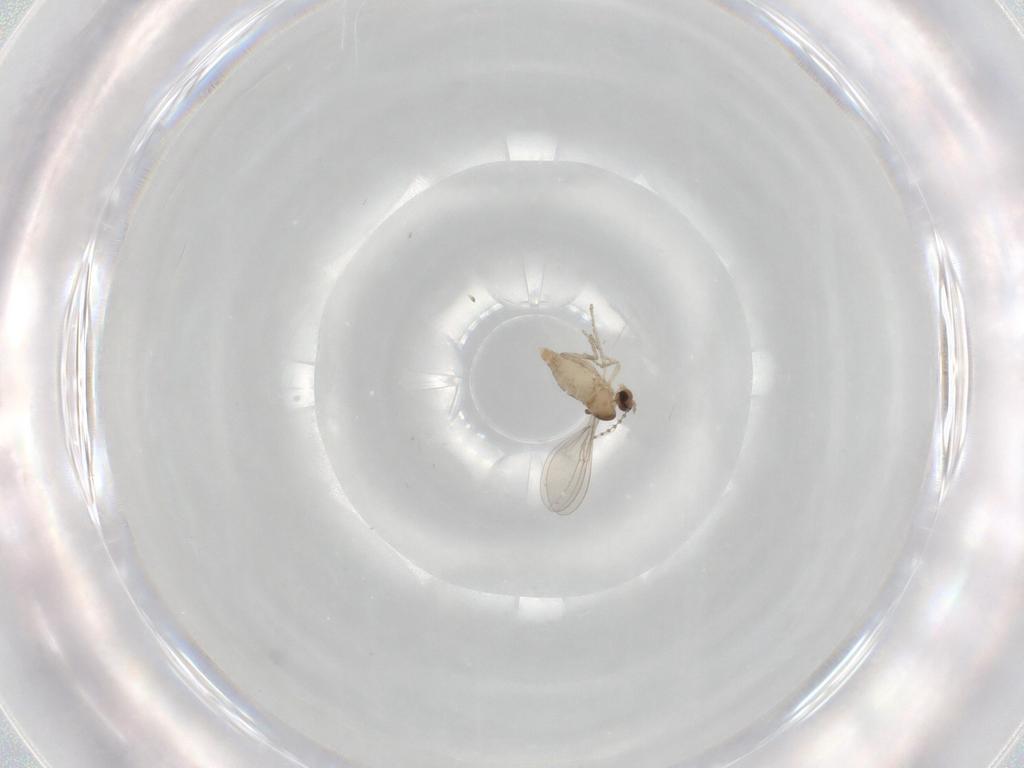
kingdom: Animalia
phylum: Arthropoda
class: Insecta
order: Diptera
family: Cecidomyiidae
